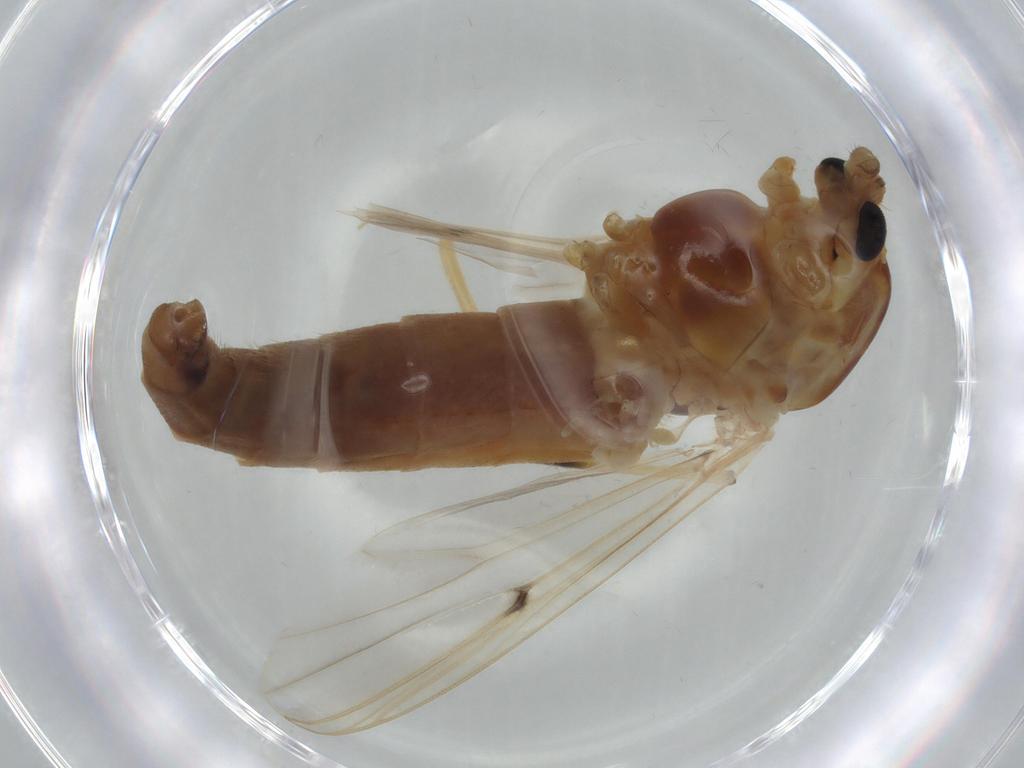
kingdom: Animalia
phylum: Arthropoda
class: Insecta
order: Diptera
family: Chironomidae
